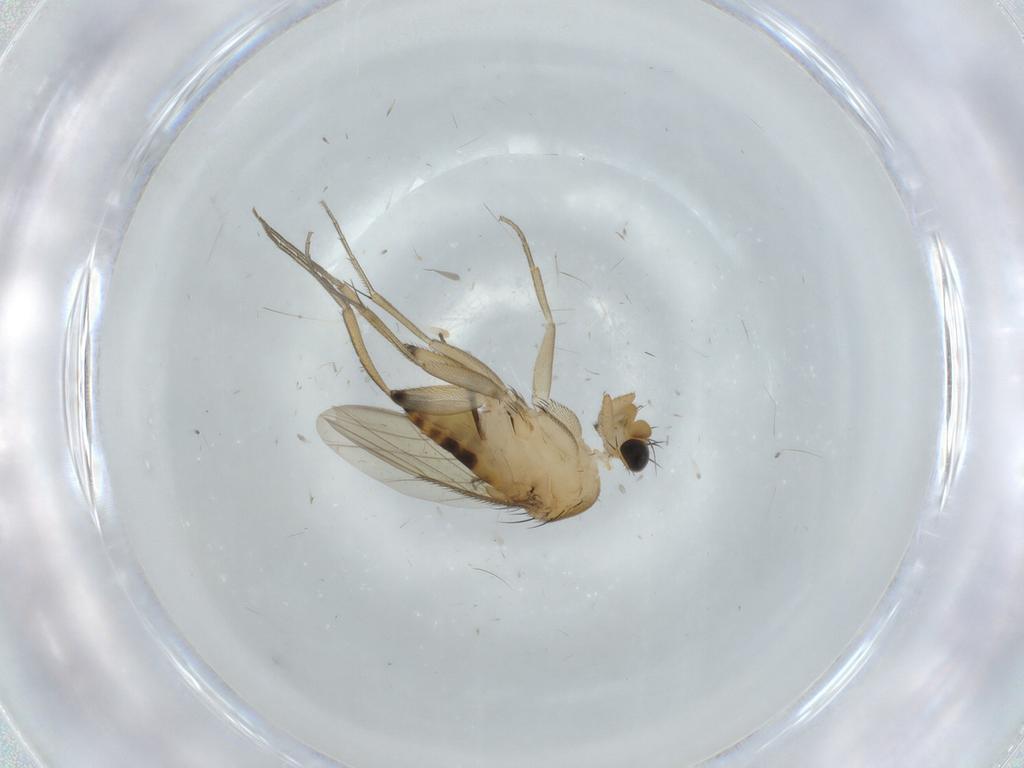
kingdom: Animalia
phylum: Arthropoda
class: Insecta
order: Diptera
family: Phoridae
